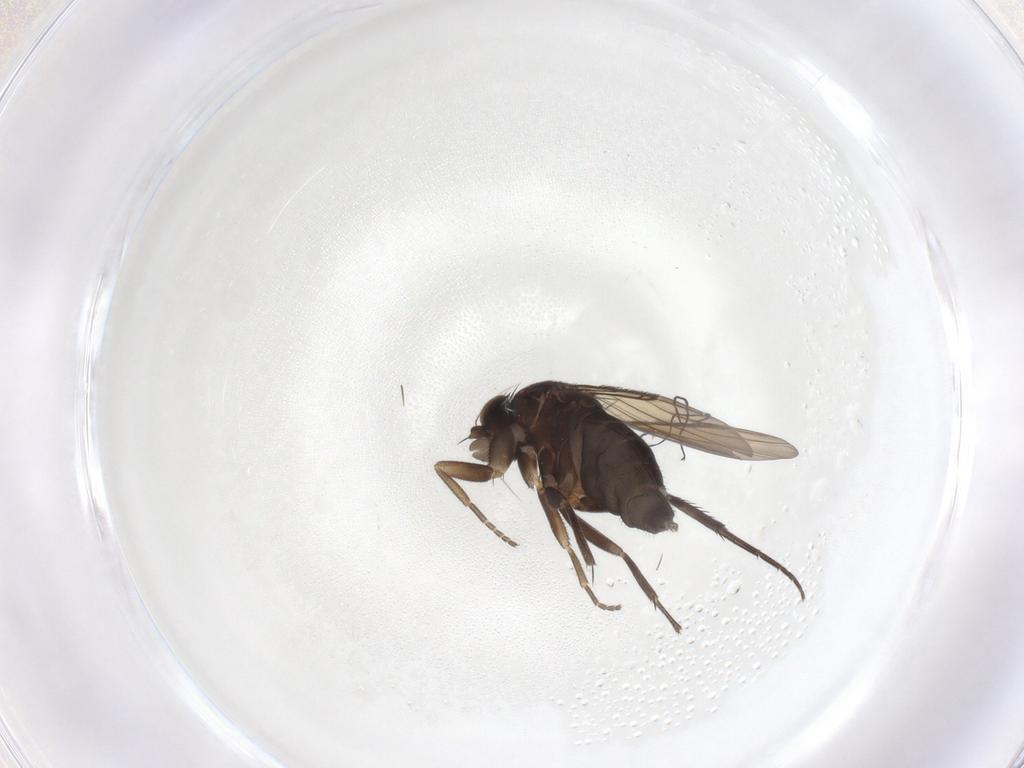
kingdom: Animalia
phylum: Arthropoda
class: Insecta
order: Diptera
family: Phoridae
